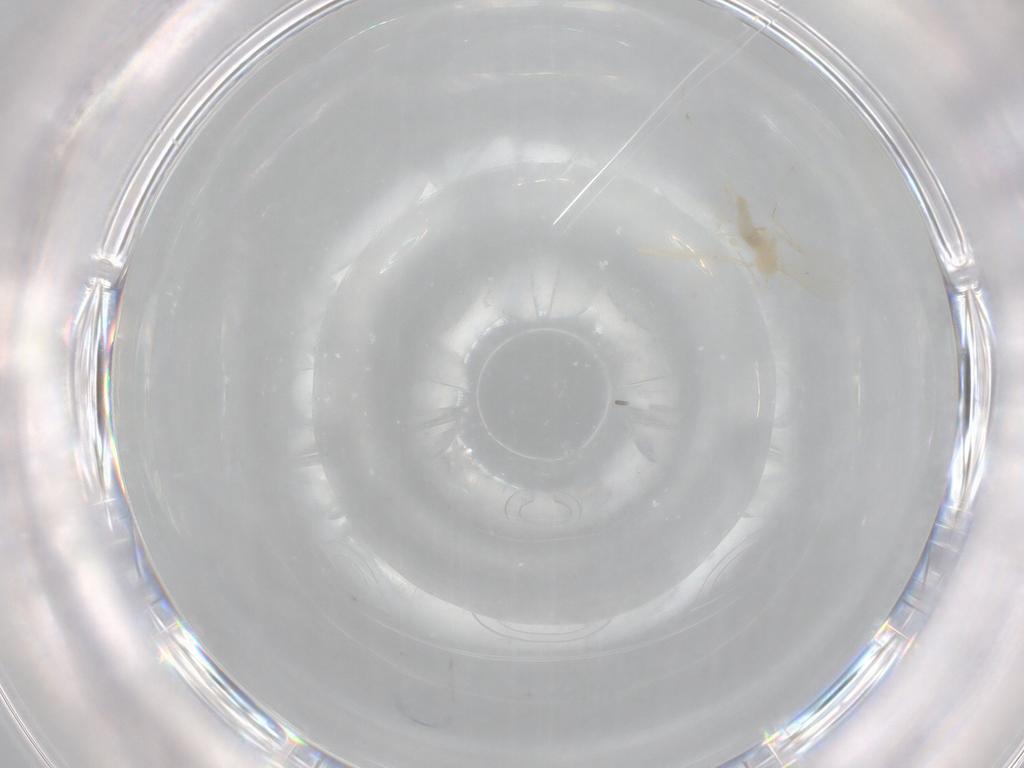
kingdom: Animalia
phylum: Arthropoda
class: Insecta
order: Diptera
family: Cecidomyiidae
